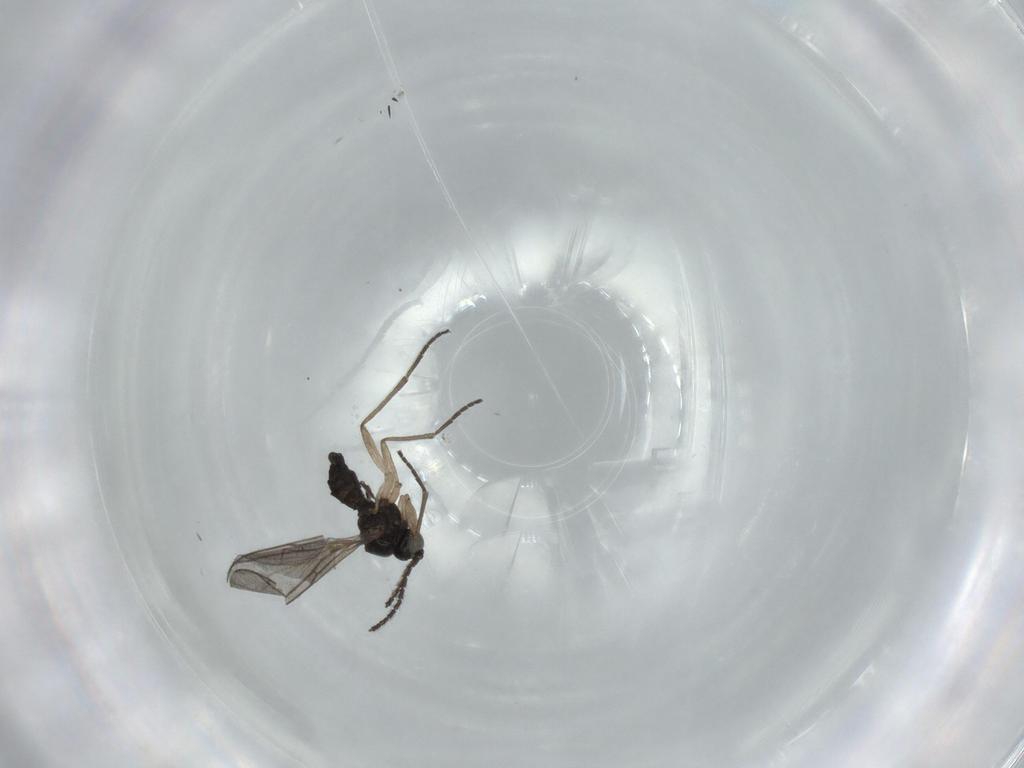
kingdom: Animalia
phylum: Arthropoda
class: Insecta
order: Diptera
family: Sciaridae
